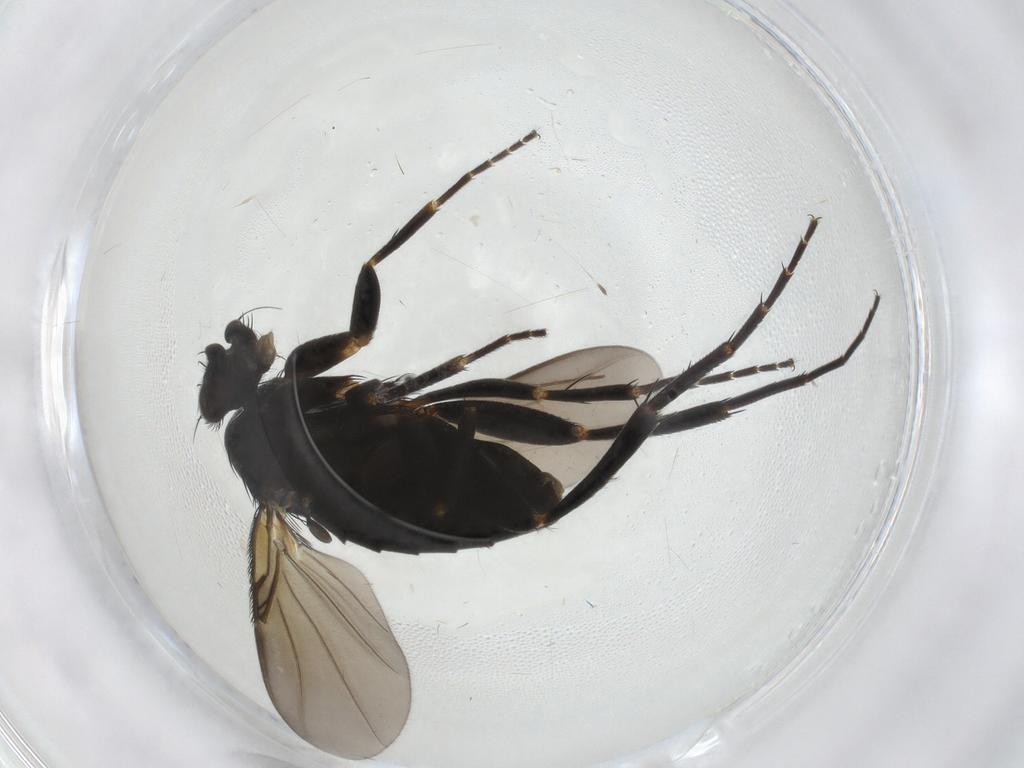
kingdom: Animalia
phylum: Arthropoda
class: Insecta
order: Diptera
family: Phoridae
